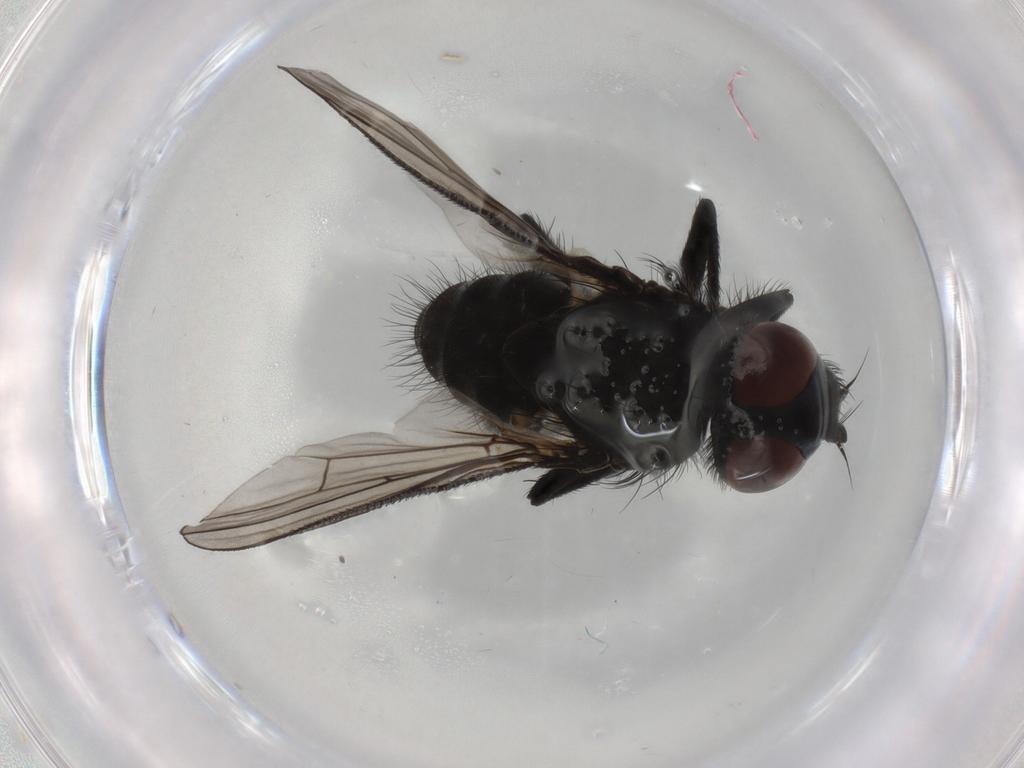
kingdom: Animalia
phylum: Arthropoda
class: Insecta
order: Diptera
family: Muscidae
